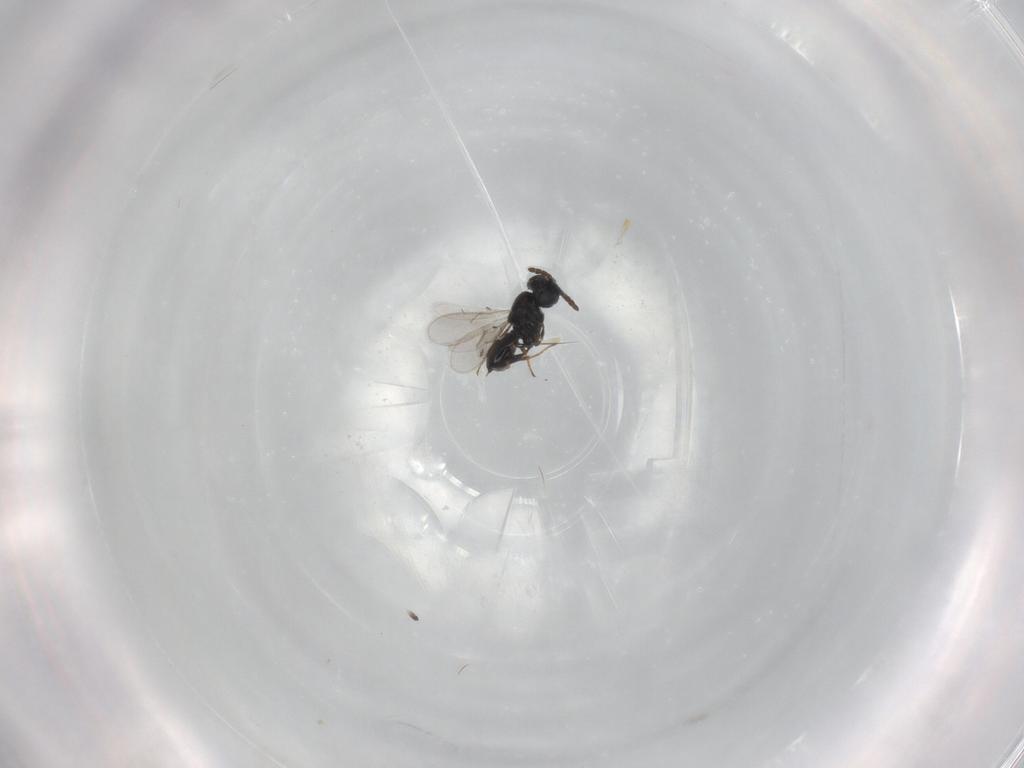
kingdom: Animalia
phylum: Arthropoda
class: Insecta
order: Hymenoptera
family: Scelionidae
